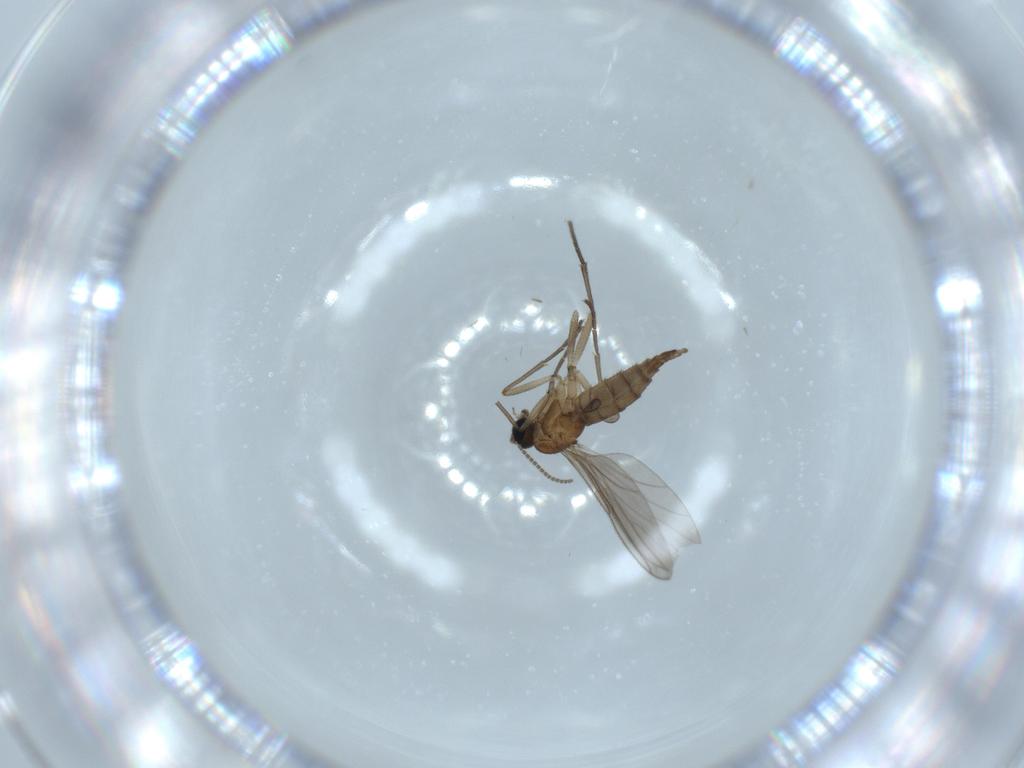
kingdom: Animalia
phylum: Arthropoda
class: Insecta
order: Diptera
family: Sciaridae
